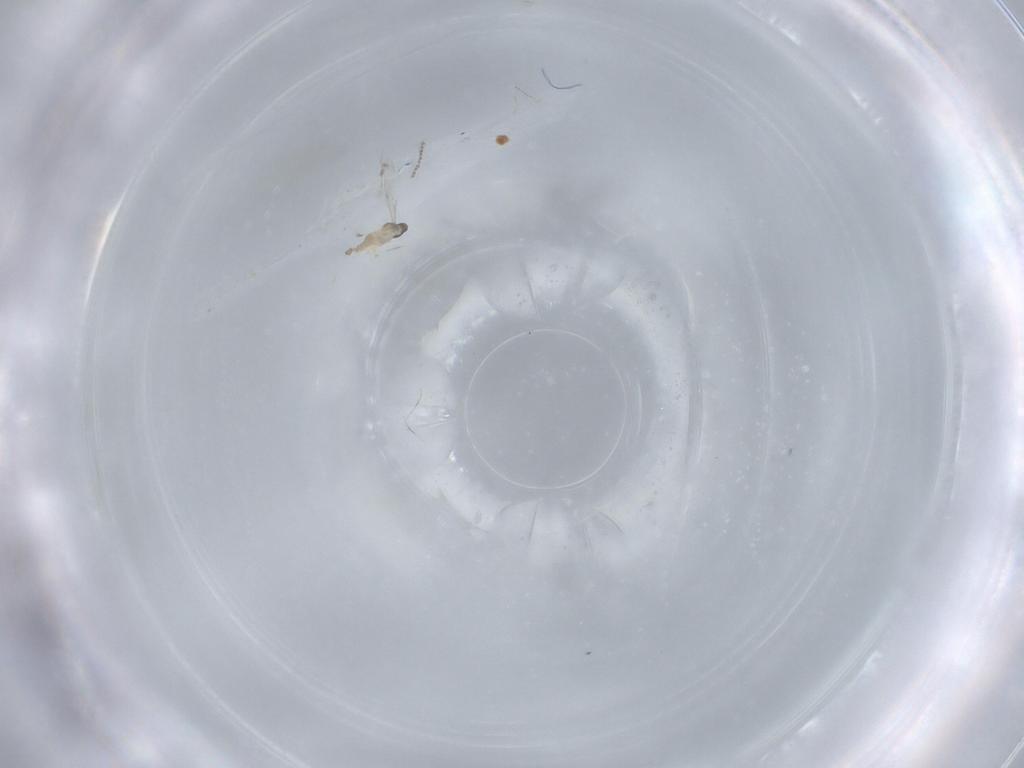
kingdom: Animalia
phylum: Arthropoda
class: Insecta
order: Diptera
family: Cecidomyiidae
